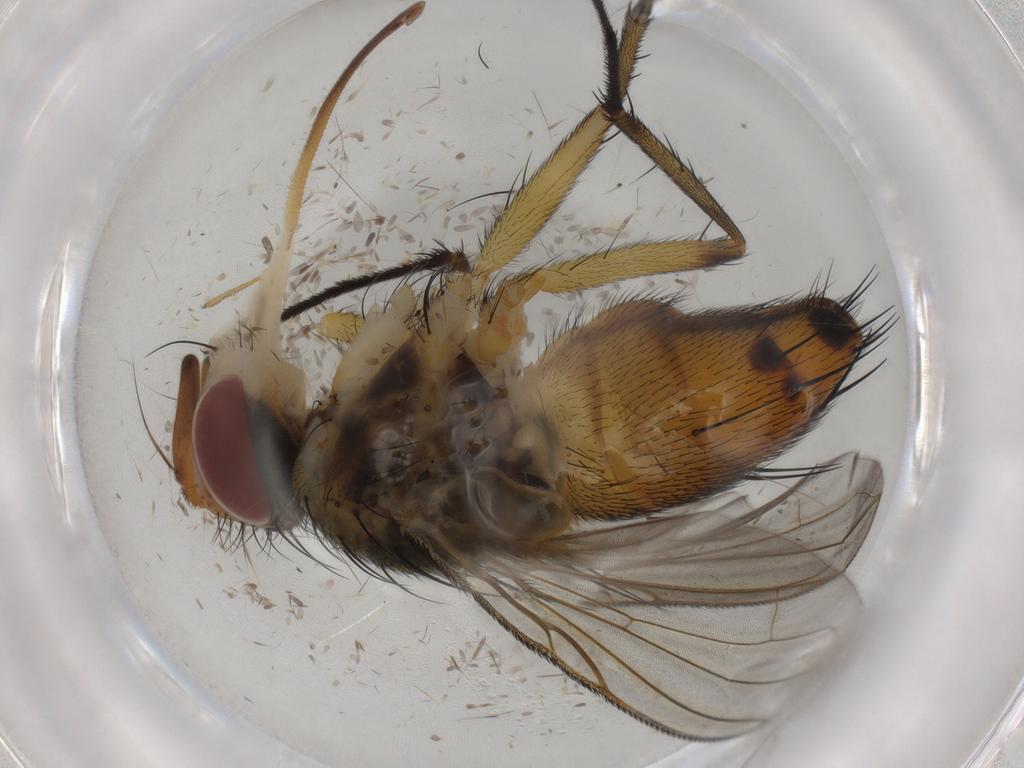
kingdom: Animalia
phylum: Arthropoda
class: Insecta
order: Diptera
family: Tachinidae
